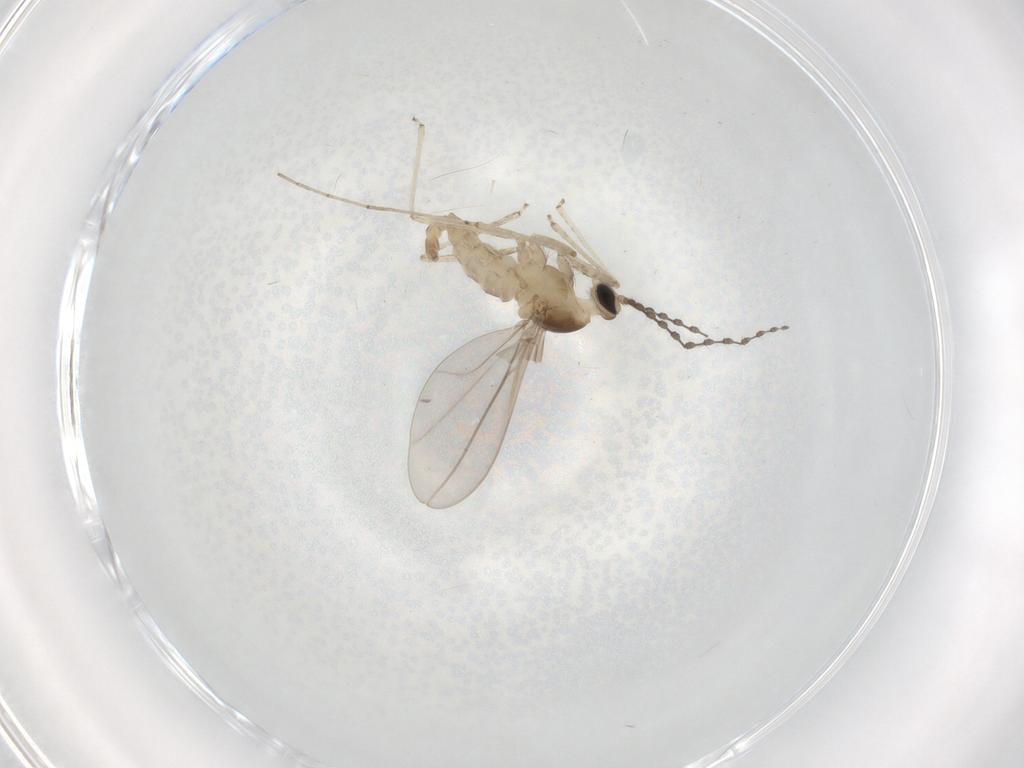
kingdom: Animalia
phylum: Arthropoda
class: Insecta
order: Diptera
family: Cecidomyiidae
